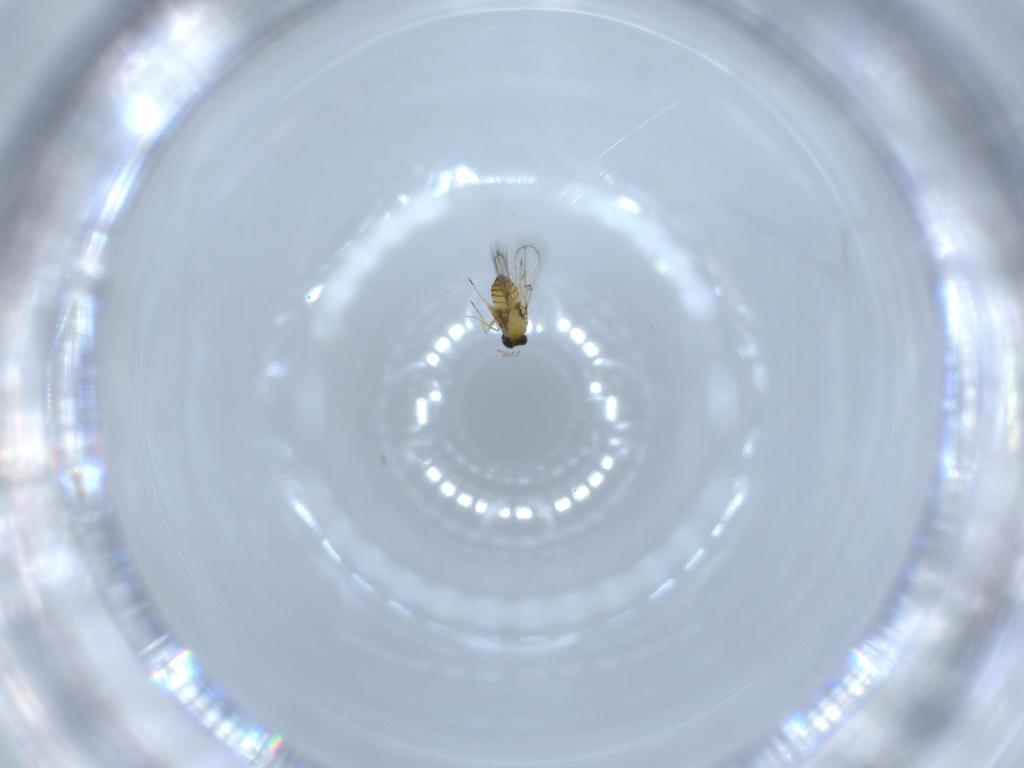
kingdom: Animalia
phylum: Arthropoda
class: Insecta
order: Hymenoptera
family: Trichogrammatidae
